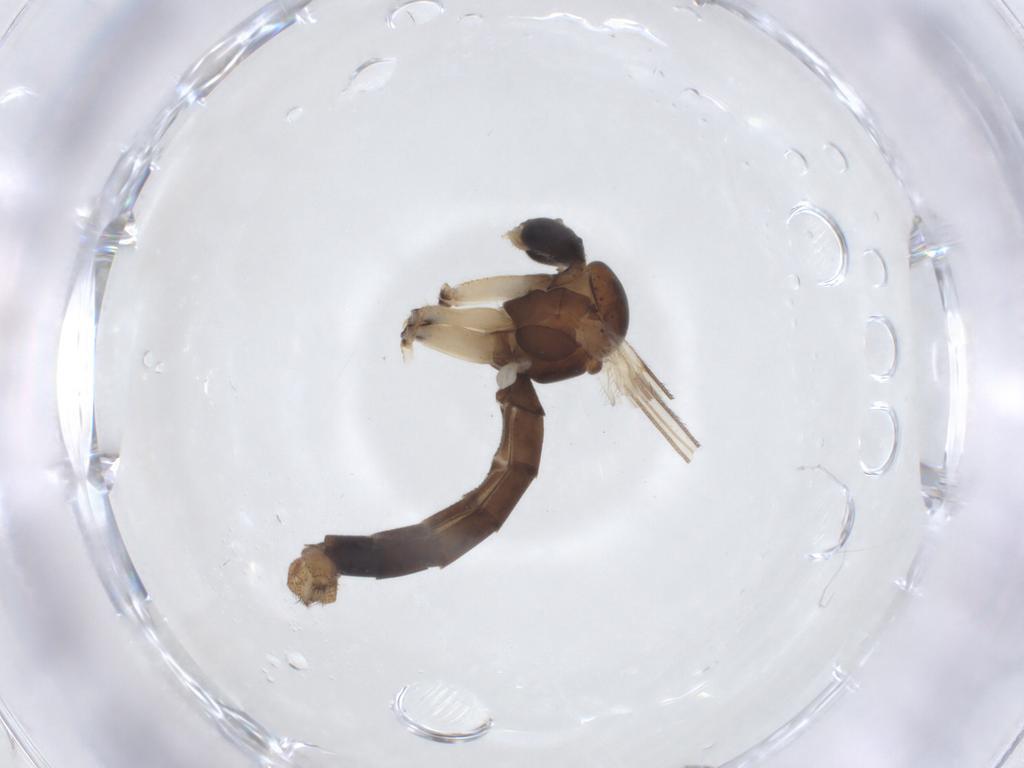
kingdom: Animalia
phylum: Arthropoda
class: Insecta
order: Diptera
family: Mycetophilidae
